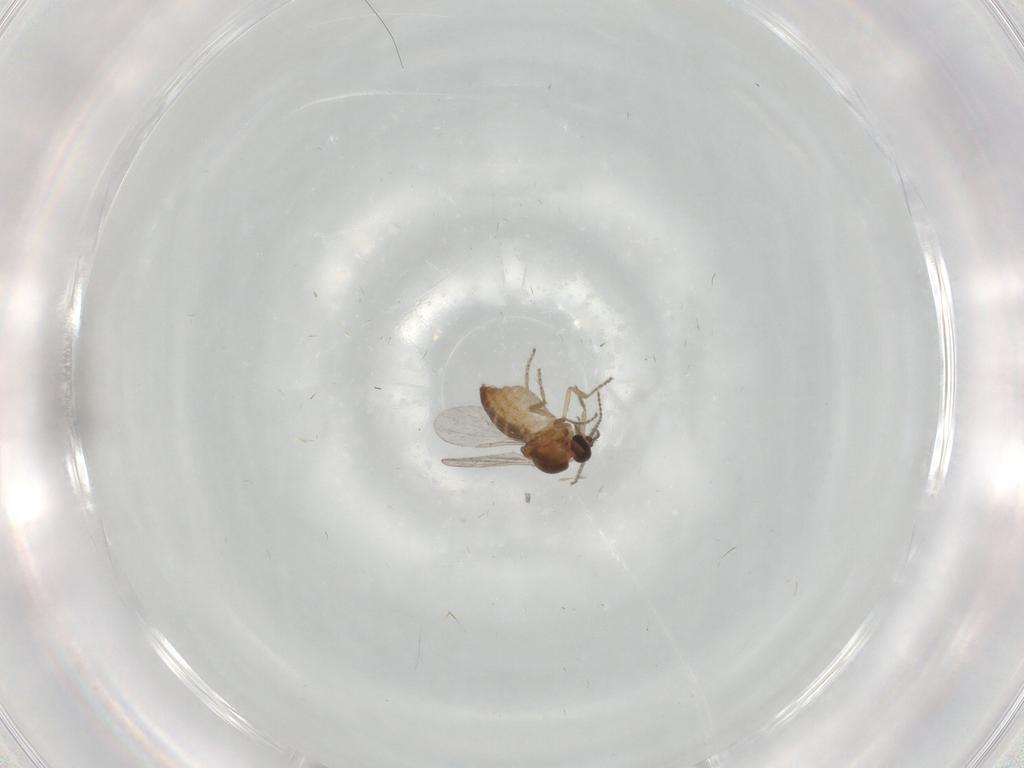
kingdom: Animalia
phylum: Arthropoda
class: Insecta
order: Diptera
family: Ceratopogonidae
